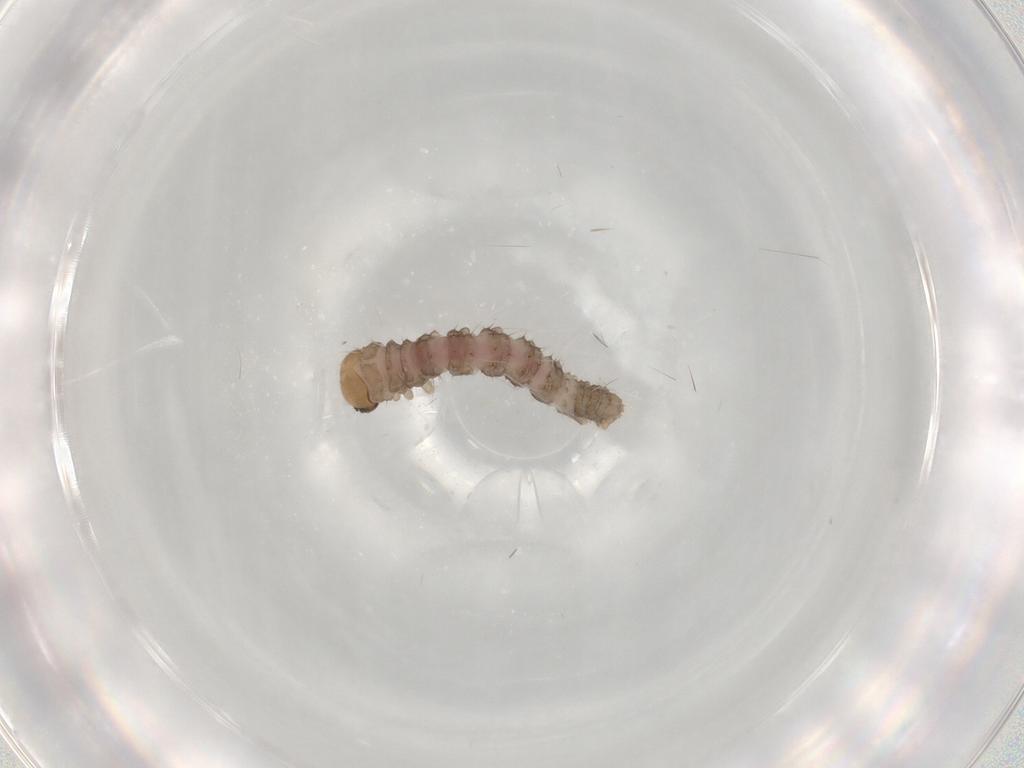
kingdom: Animalia
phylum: Arthropoda
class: Insecta
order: Lepidoptera
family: Geometridae
